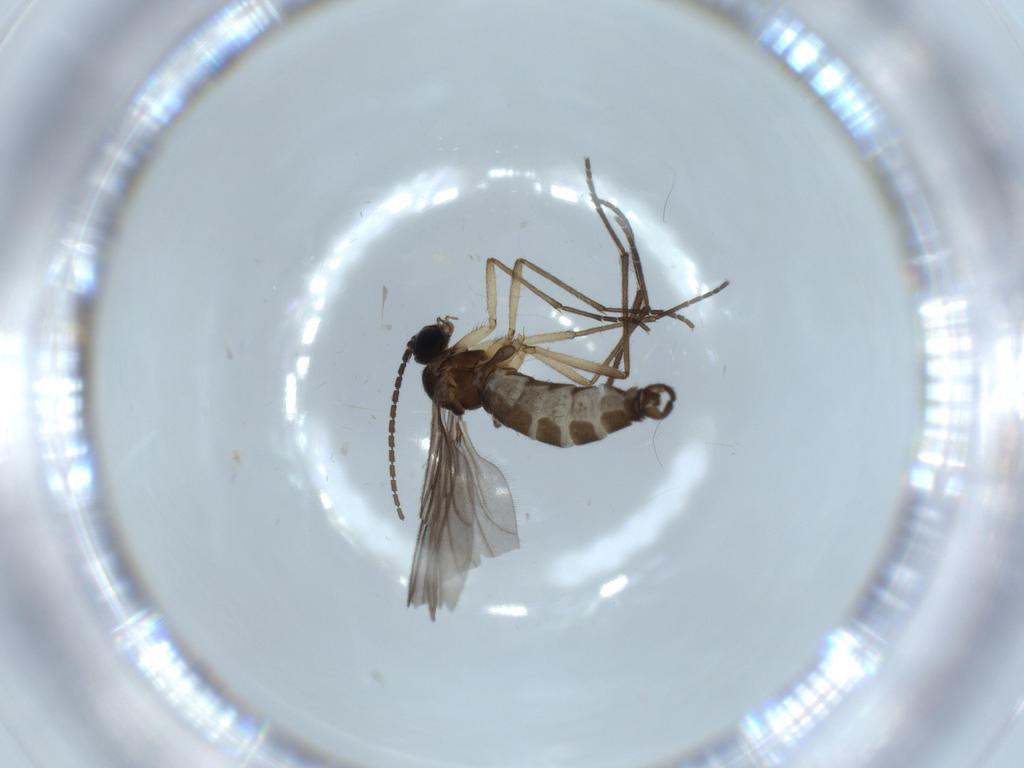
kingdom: Animalia
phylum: Arthropoda
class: Insecta
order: Diptera
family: Sciaridae
